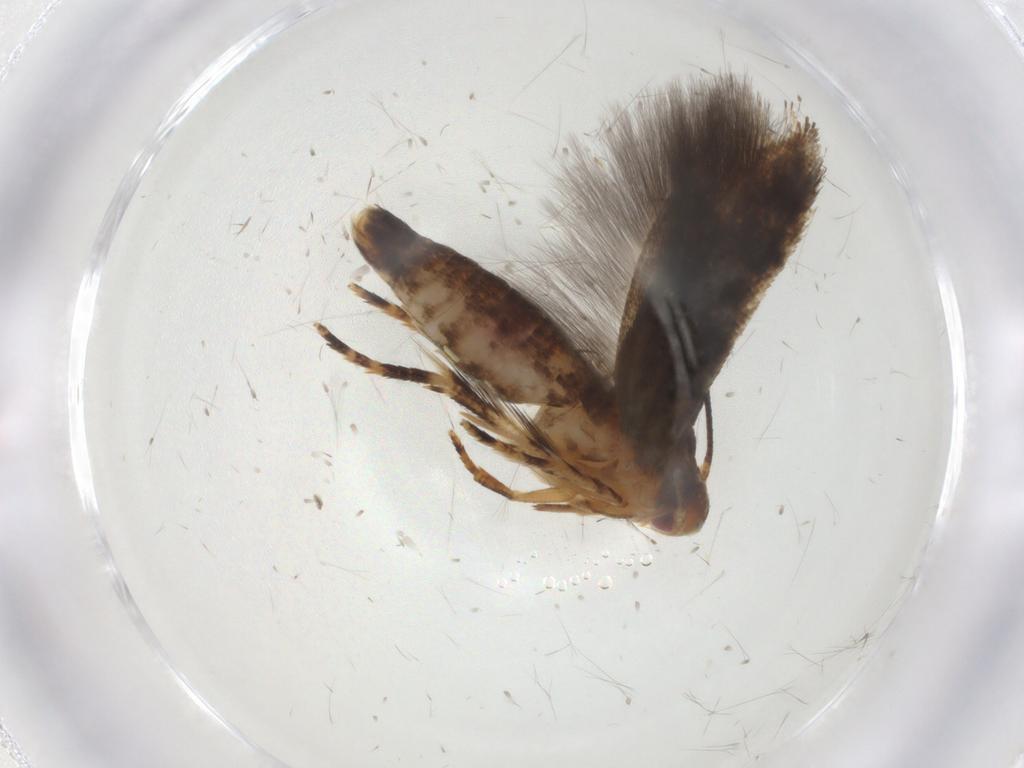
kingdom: Animalia
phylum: Arthropoda
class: Insecta
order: Lepidoptera
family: Momphidae
